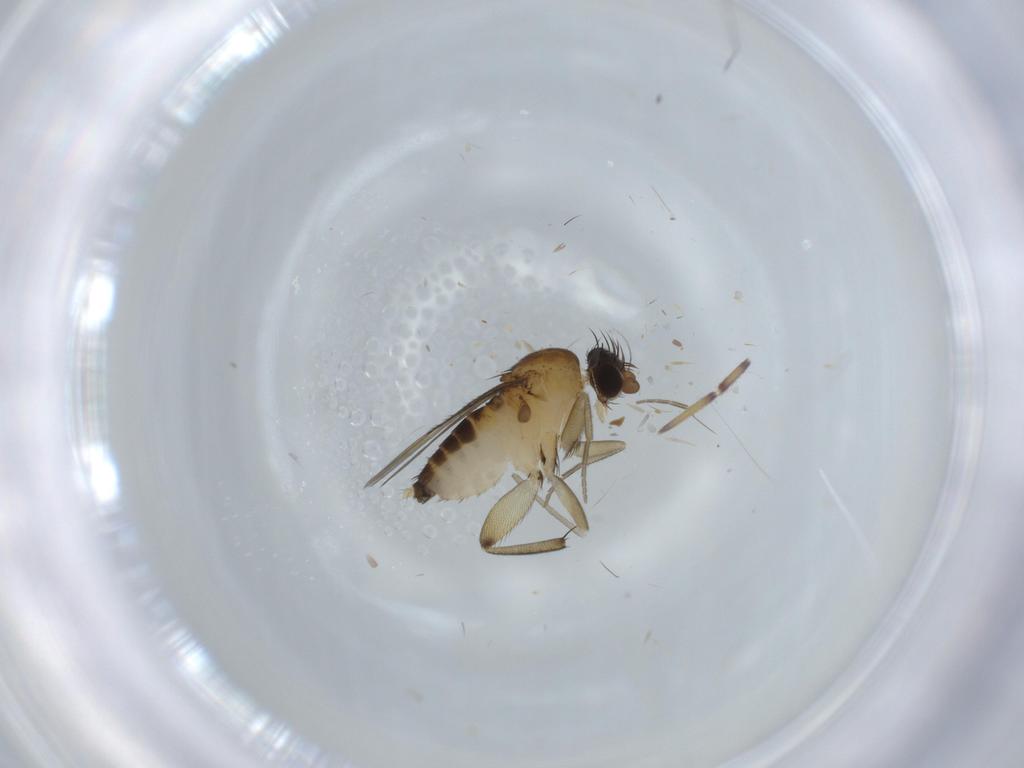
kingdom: Animalia
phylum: Arthropoda
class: Insecta
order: Diptera
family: Phoridae
